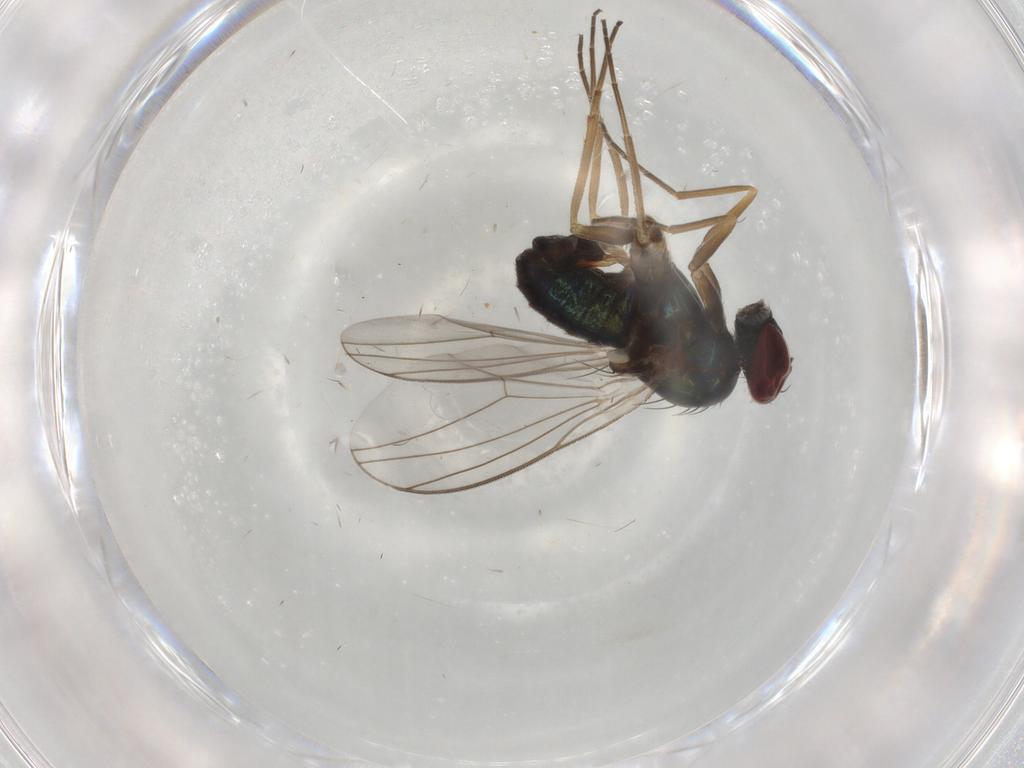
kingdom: Animalia
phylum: Arthropoda
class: Insecta
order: Diptera
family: Dolichopodidae
